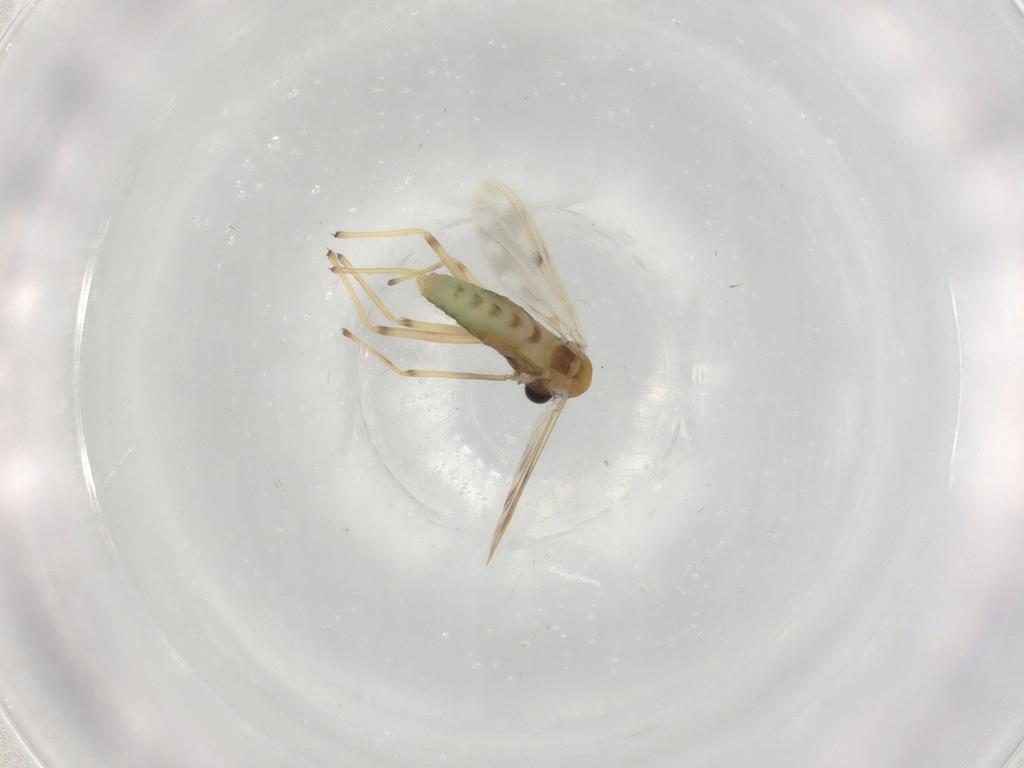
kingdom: Animalia
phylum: Arthropoda
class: Insecta
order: Diptera
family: Chironomidae
